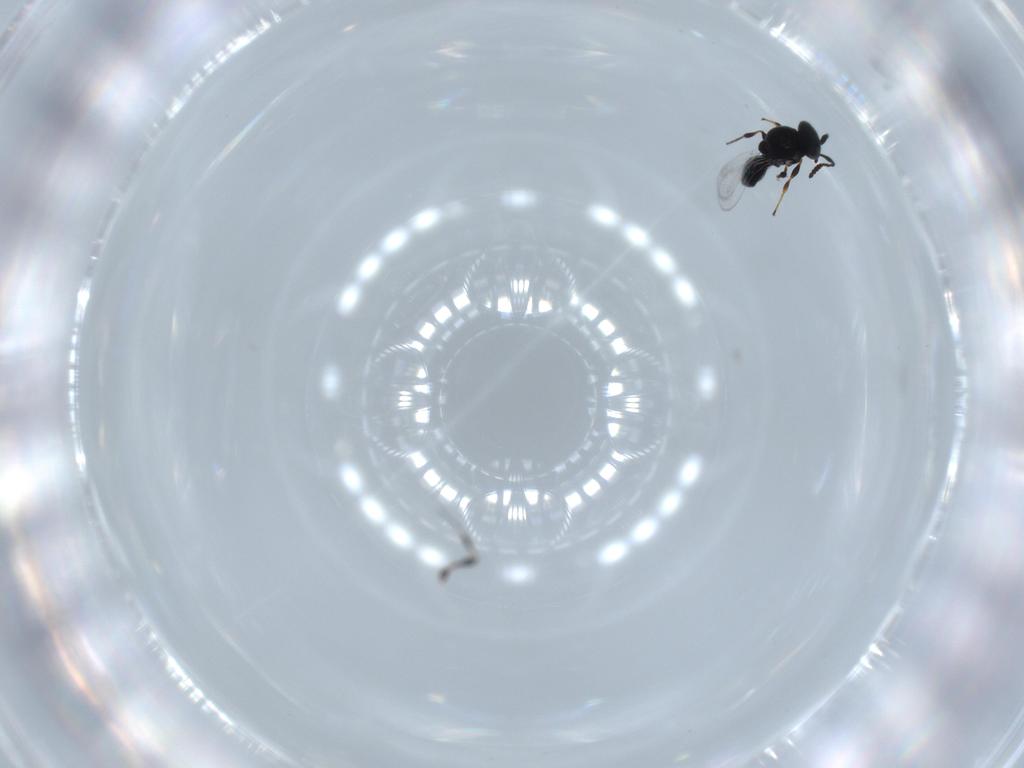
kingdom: Animalia
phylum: Arthropoda
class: Insecta
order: Hymenoptera
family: Platygastridae
